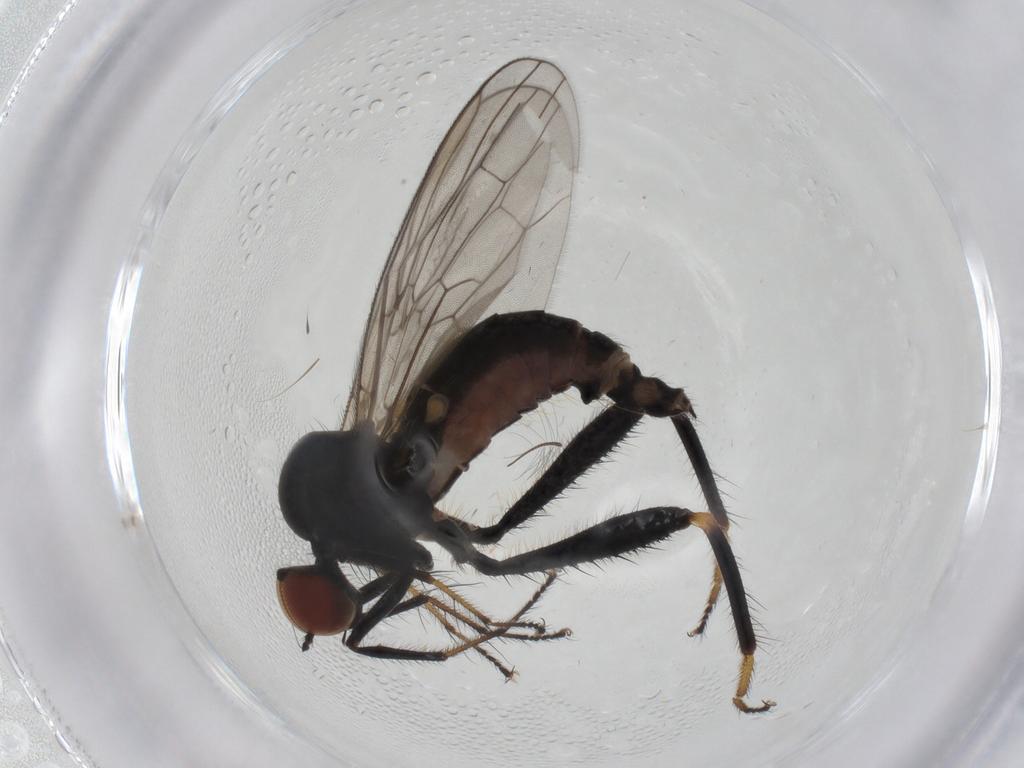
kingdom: Animalia
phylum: Arthropoda
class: Insecta
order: Diptera
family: Hybotidae
